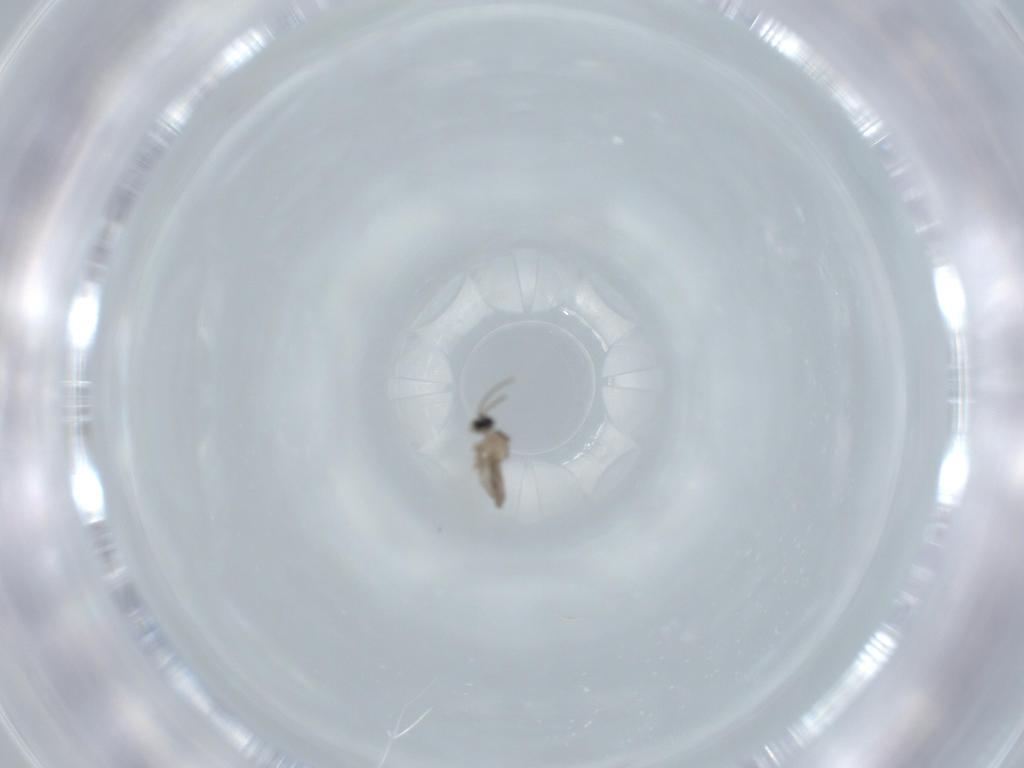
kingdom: Animalia
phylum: Arthropoda
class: Insecta
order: Diptera
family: Cecidomyiidae
